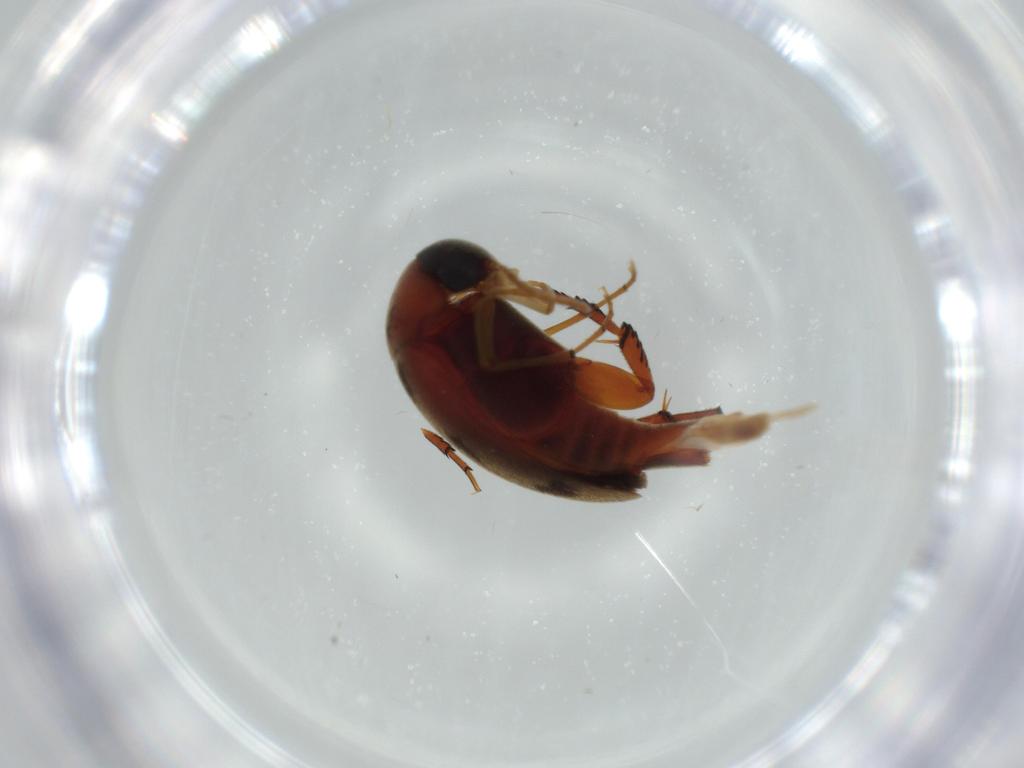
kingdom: Animalia
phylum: Arthropoda
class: Insecta
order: Coleoptera
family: Curculionidae
